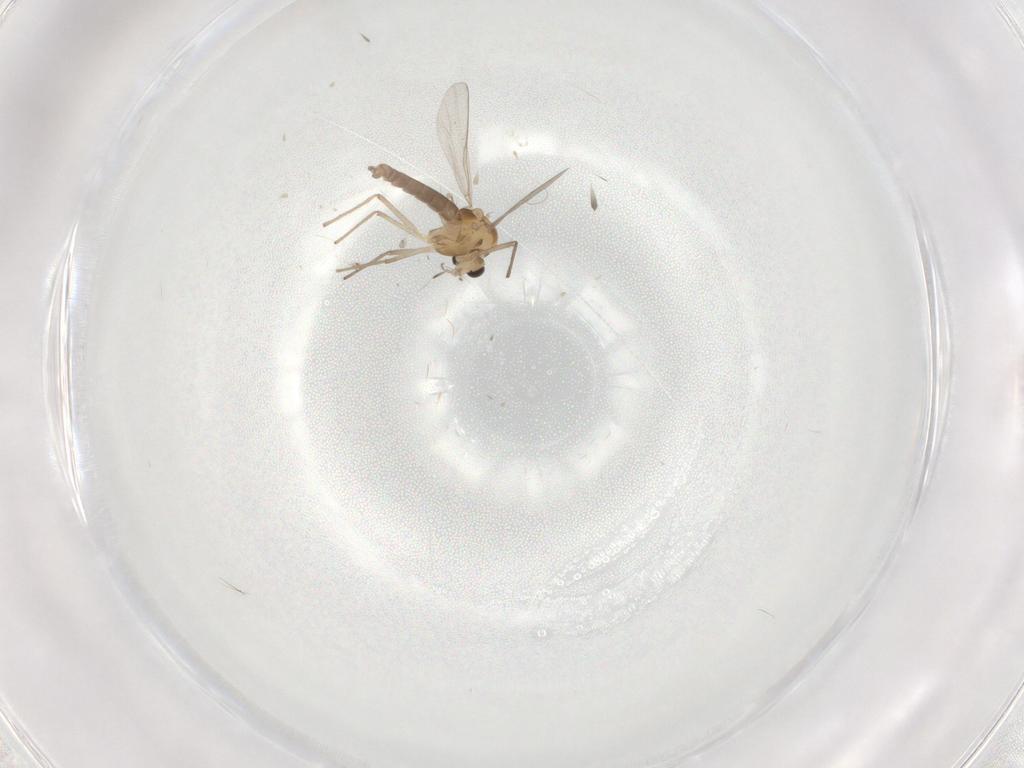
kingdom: Animalia
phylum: Arthropoda
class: Insecta
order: Diptera
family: Chironomidae
